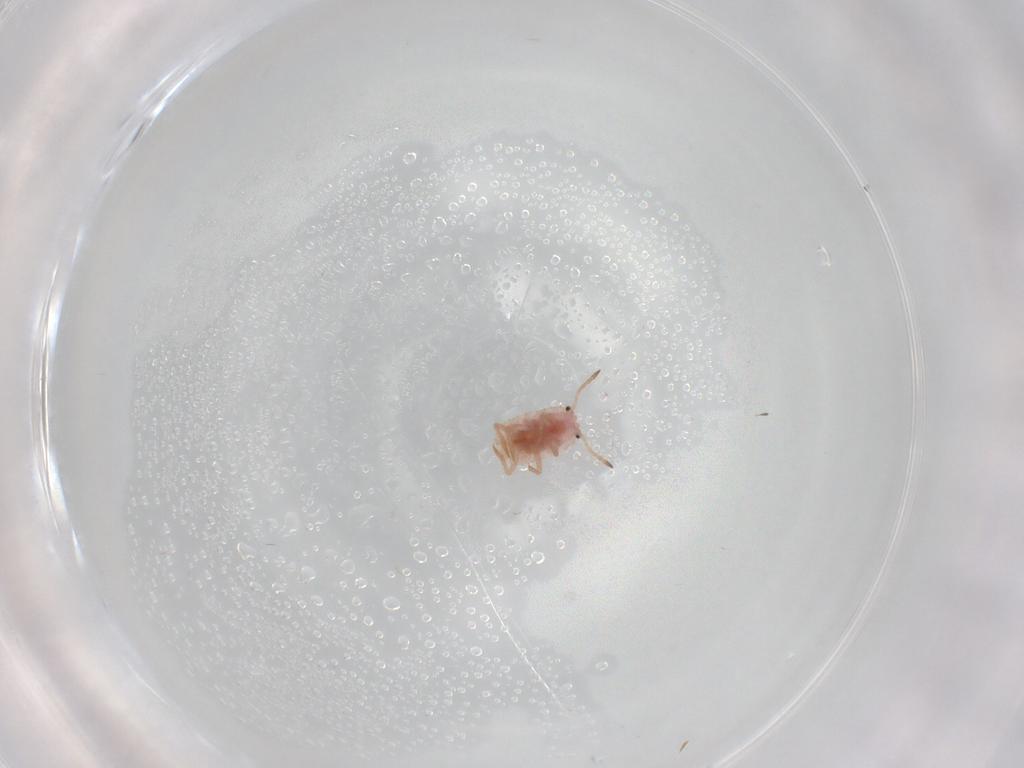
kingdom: Animalia
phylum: Arthropoda
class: Insecta
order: Hemiptera
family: Coccoidea_incertae_sedis
